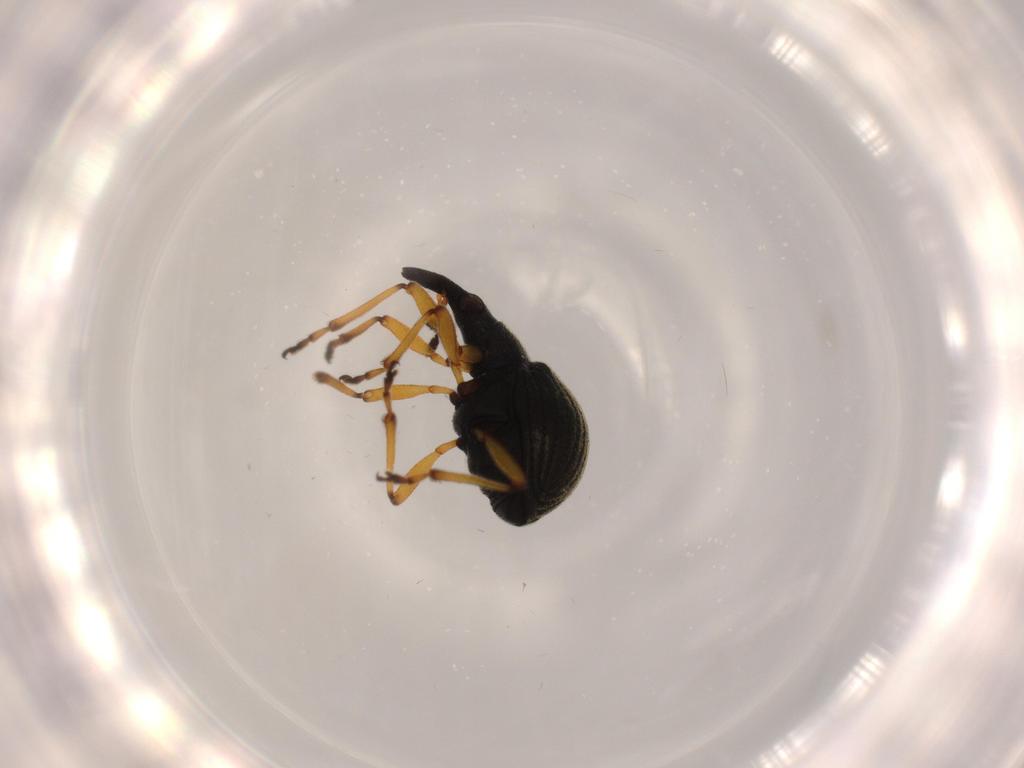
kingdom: Animalia
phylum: Arthropoda
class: Insecta
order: Coleoptera
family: Brentidae
